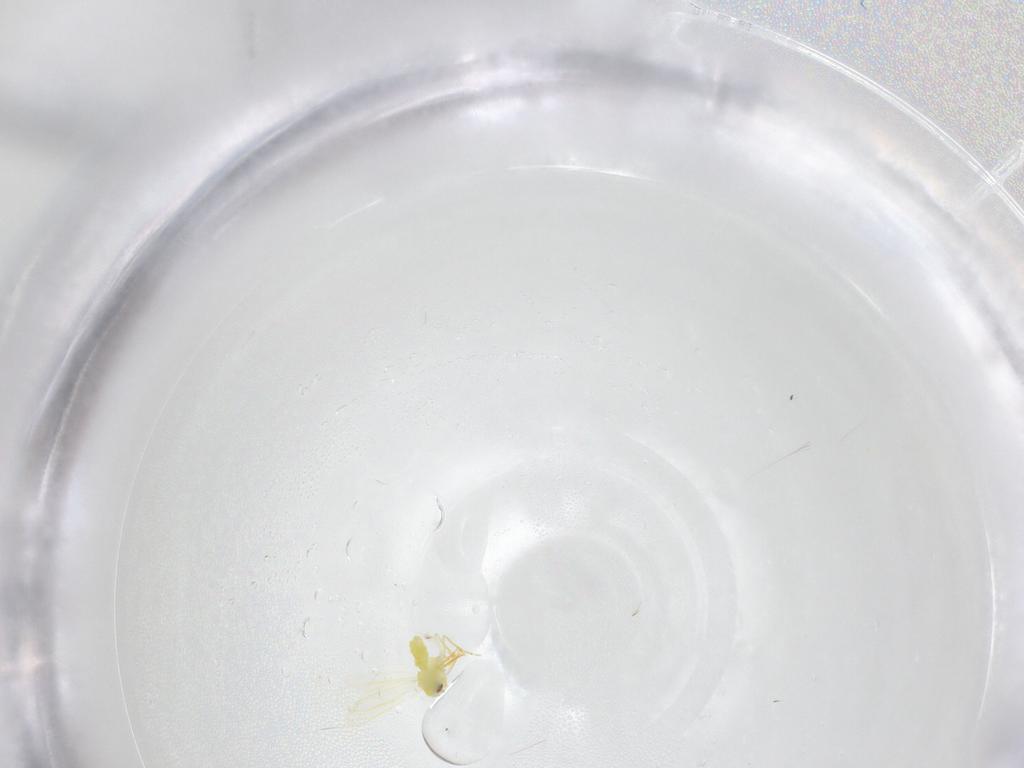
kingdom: Animalia
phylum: Arthropoda
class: Insecta
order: Hemiptera
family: Aleyrodidae
